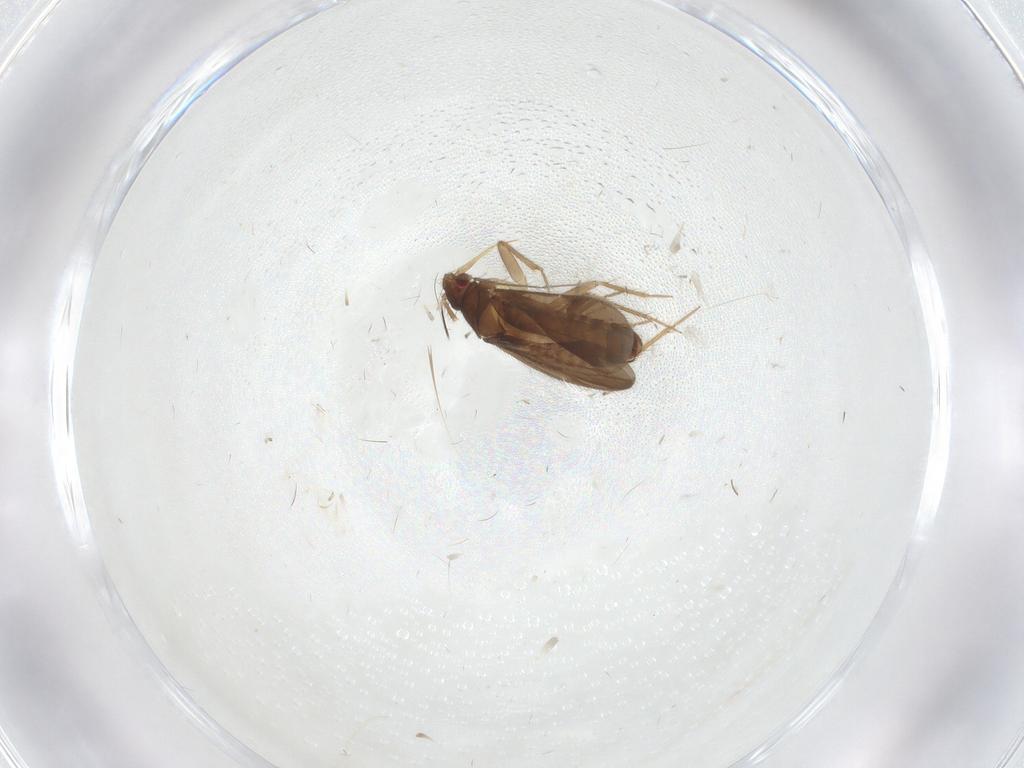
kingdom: Animalia
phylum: Arthropoda
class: Insecta
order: Hemiptera
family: Ceratocombidae
